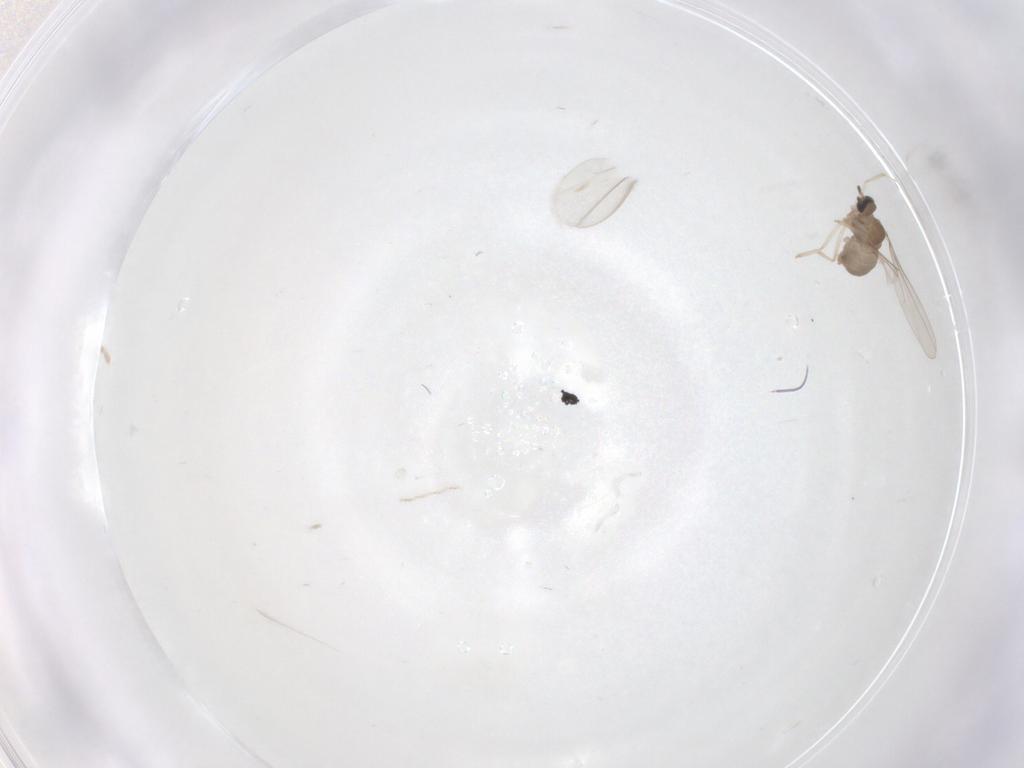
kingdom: Animalia
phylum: Arthropoda
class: Insecta
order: Diptera
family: Cecidomyiidae
